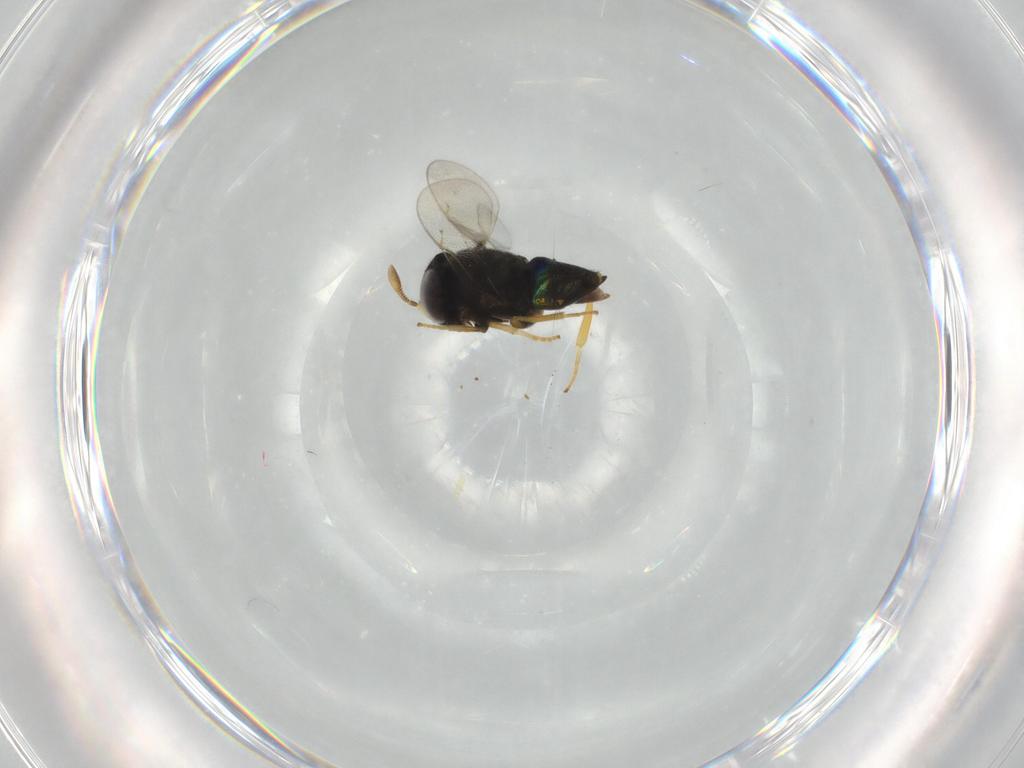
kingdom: Animalia
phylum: Arthropoda
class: Insecta
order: Hymenoptera
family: Encyrtidae
